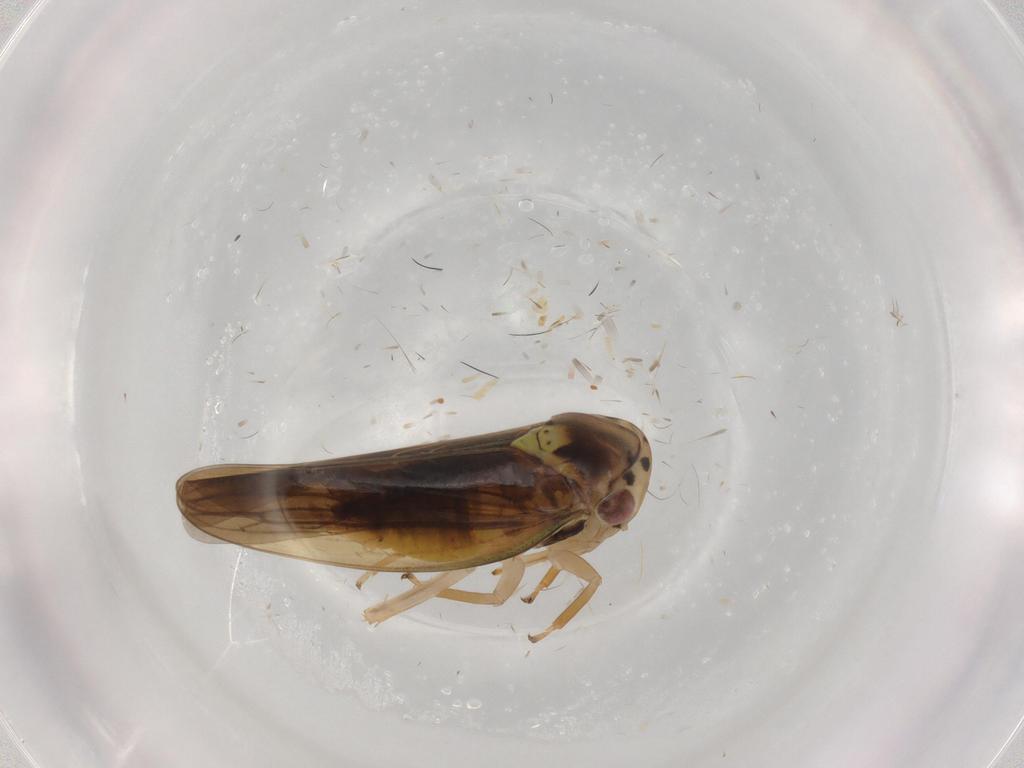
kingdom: Animalia
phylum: Arthropoda
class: Insecta
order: Hemiptera
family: Cicadellidae
